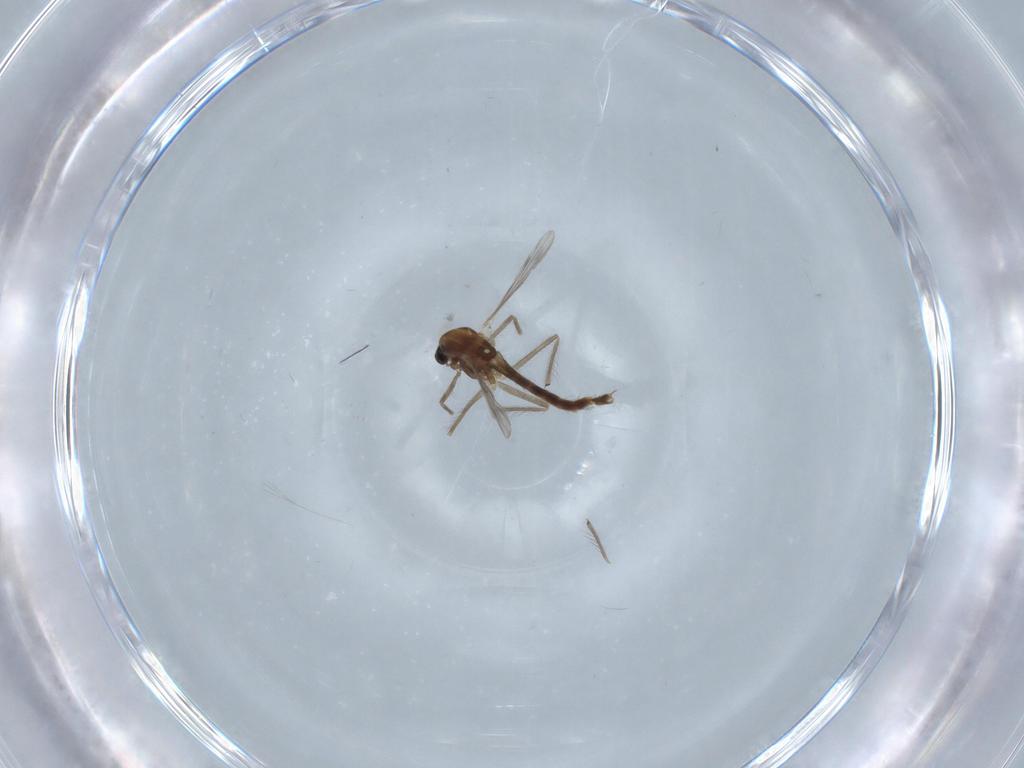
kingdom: Animalia
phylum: Arthropoda
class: Insecta
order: Diptera
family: Chironomidae
